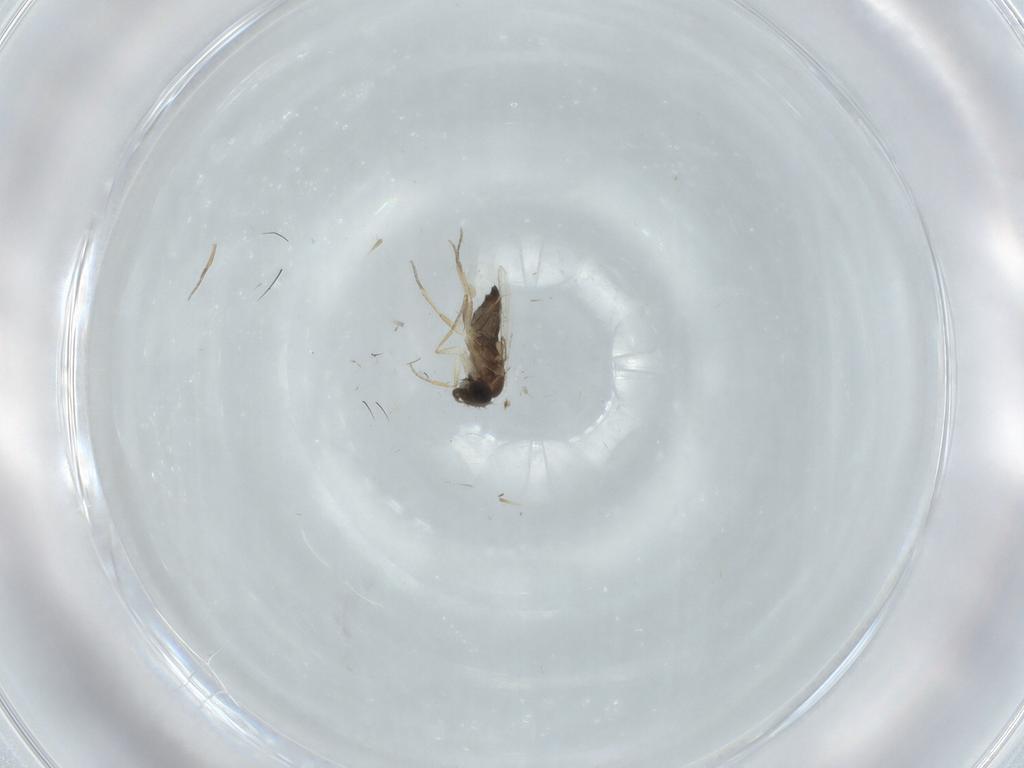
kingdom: Animalia
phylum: Arthropoda
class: Insecta
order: Diptera
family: Phoridae
